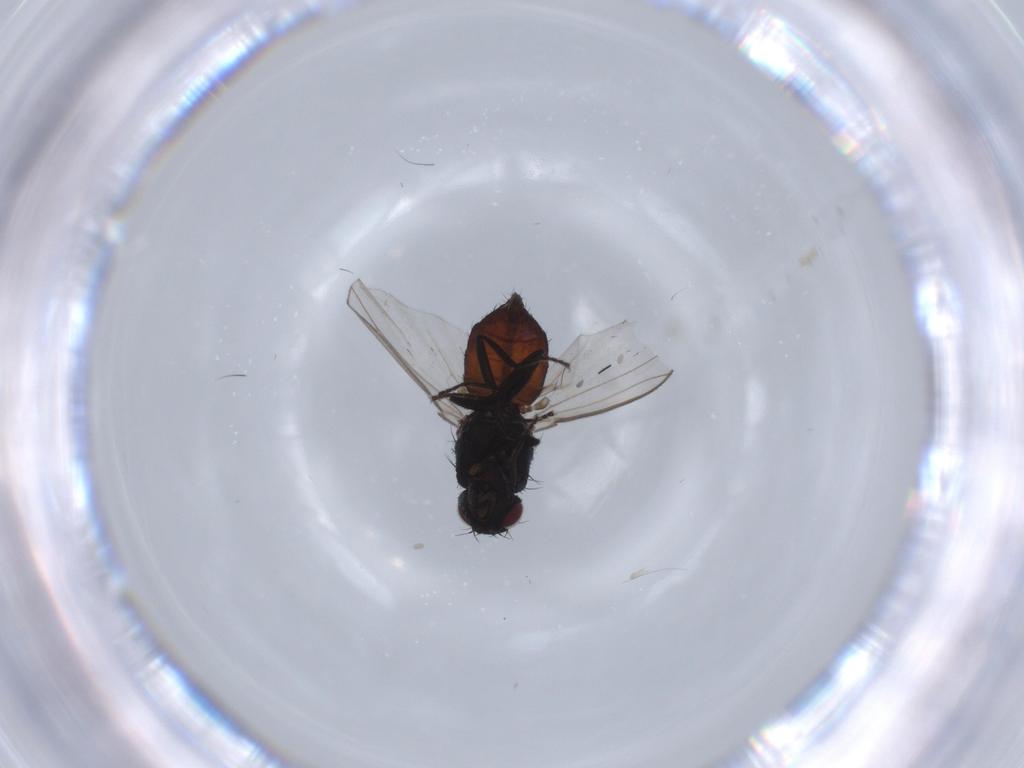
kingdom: Animalia
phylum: Arthropoda
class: Insecta
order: Diptera
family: Carnidae
